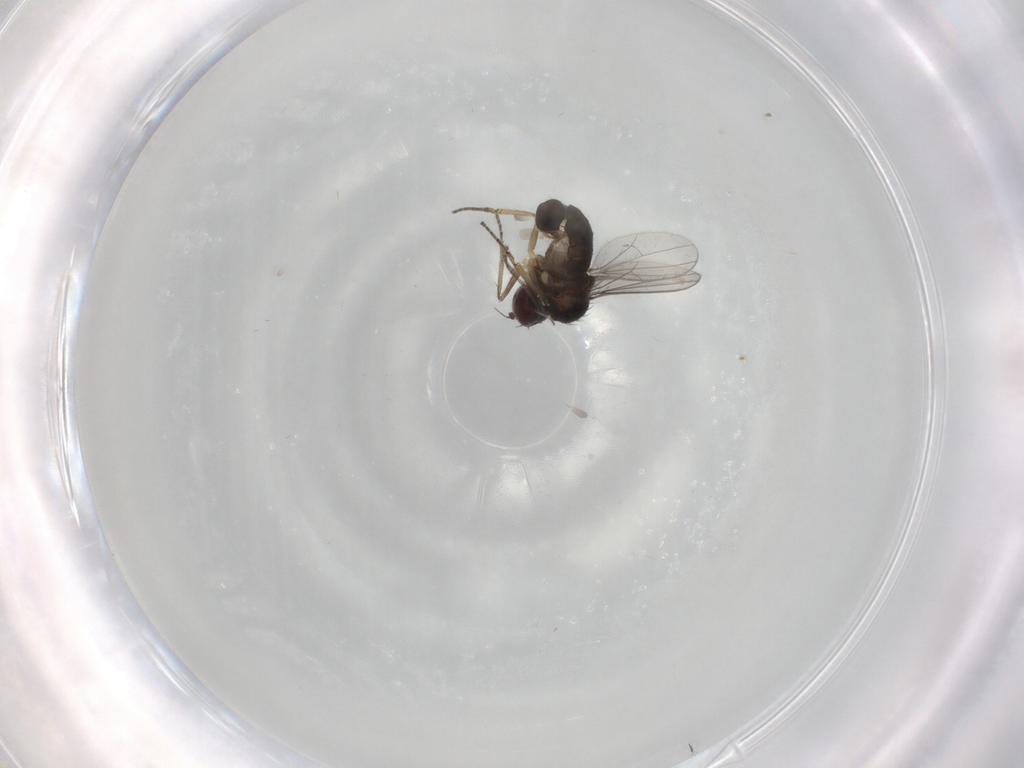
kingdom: Animalia
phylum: Arthropoda
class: Insecta
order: Diptera
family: Dolichopodidae
